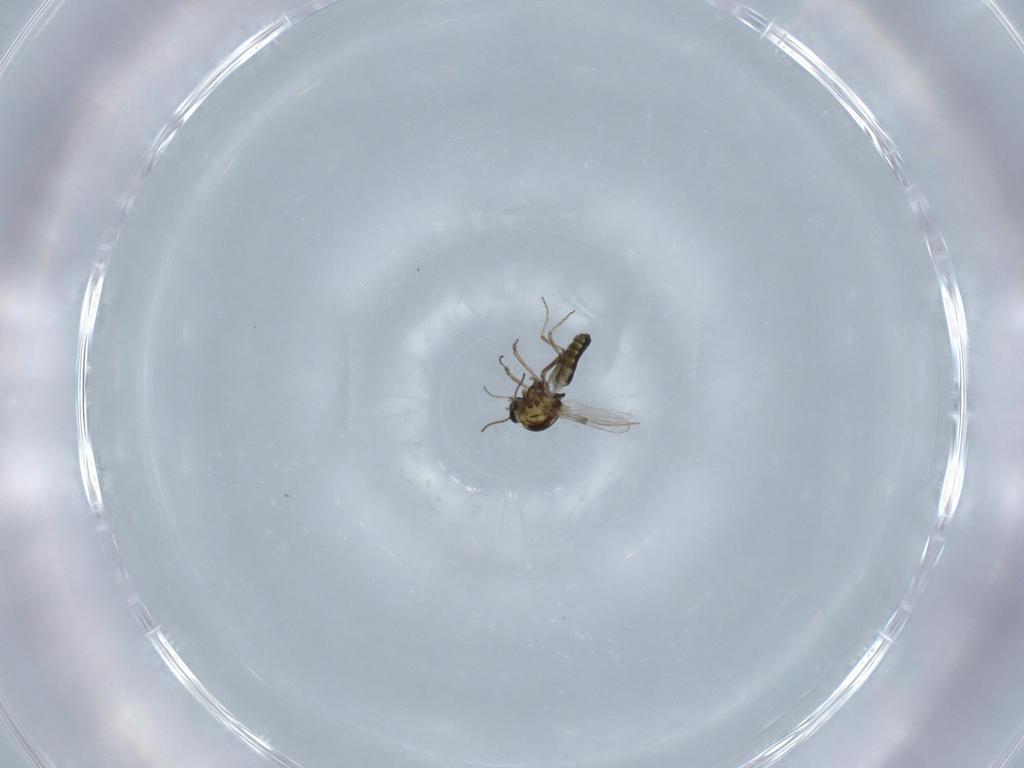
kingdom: Animalia
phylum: Arthropoda
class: Insecta
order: Diptera
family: Ceratopogonidae
